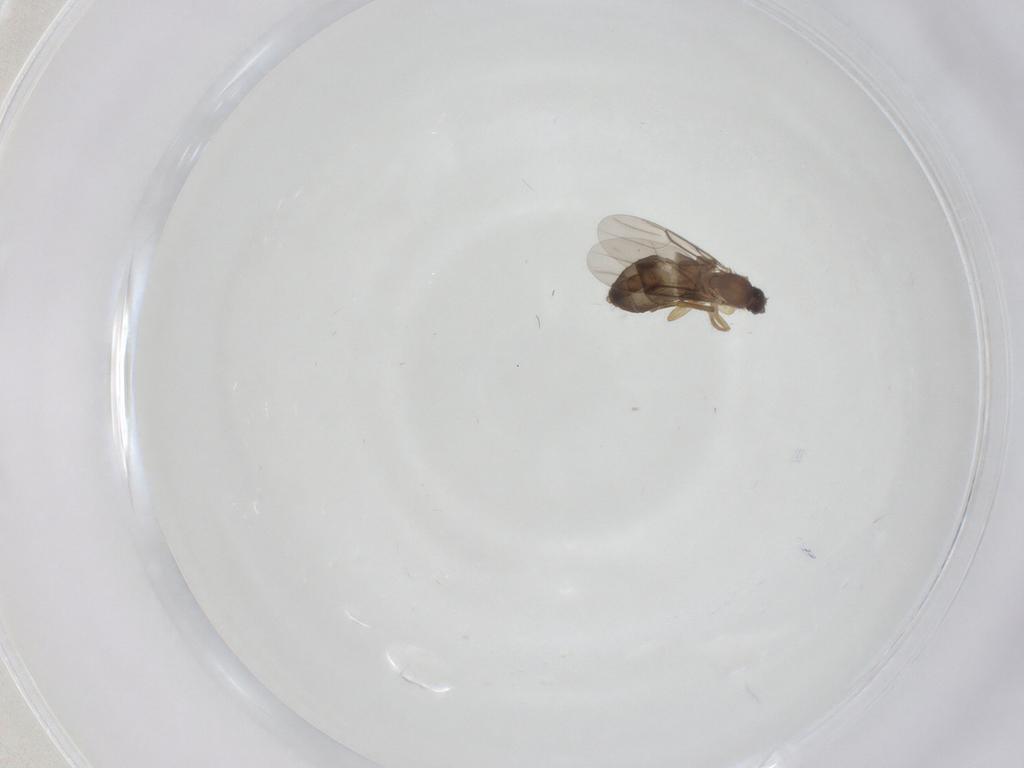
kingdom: Animalia
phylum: Arthropoda
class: Insecta
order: Diptera
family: Phoridae
